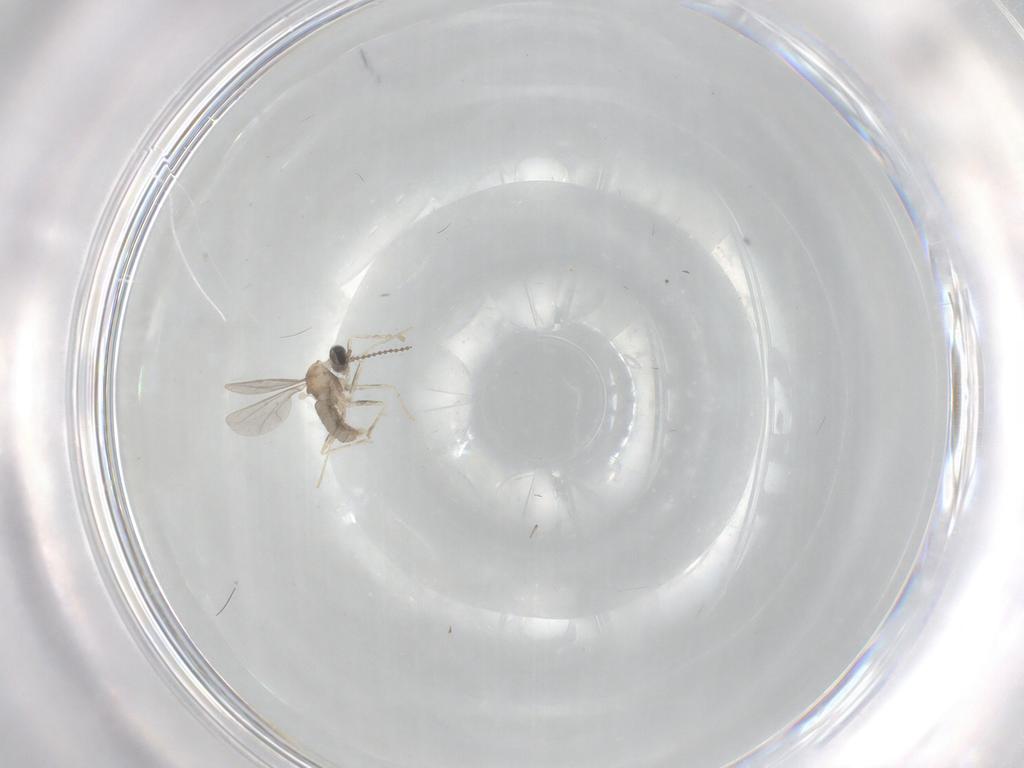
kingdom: Animalia
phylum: Arthropoda
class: Insecta
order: Diptera
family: Cecidomyiidae
